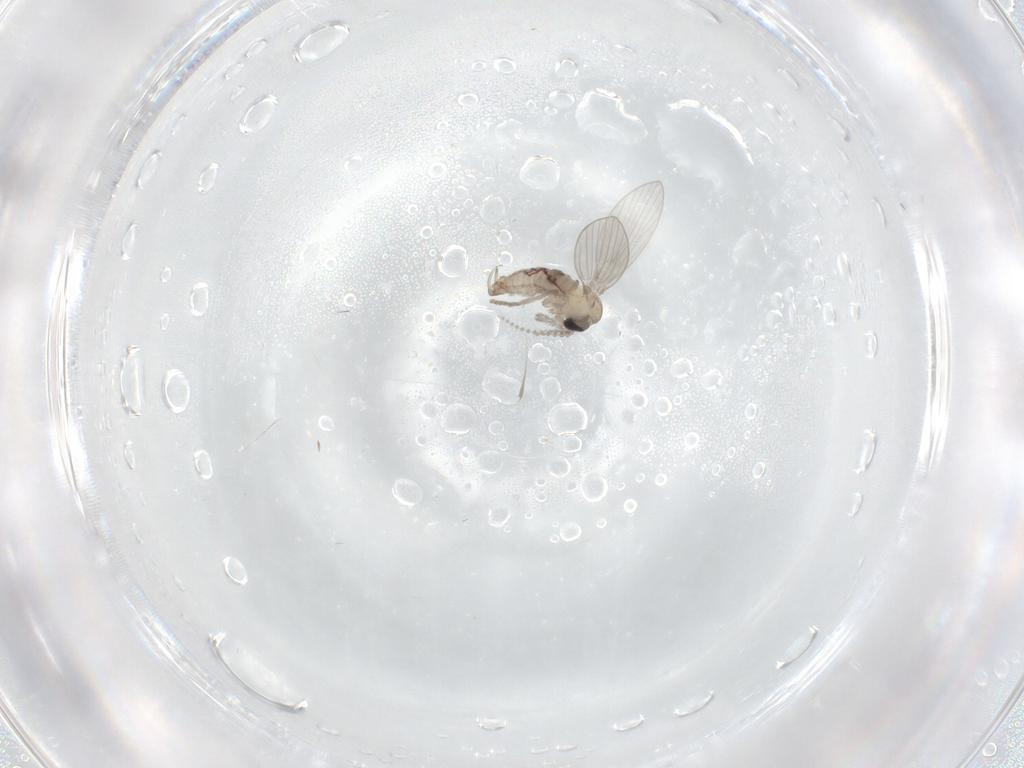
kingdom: Animalia
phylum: Arthropoda
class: Insecta
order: Diptera
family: Psychodidae
